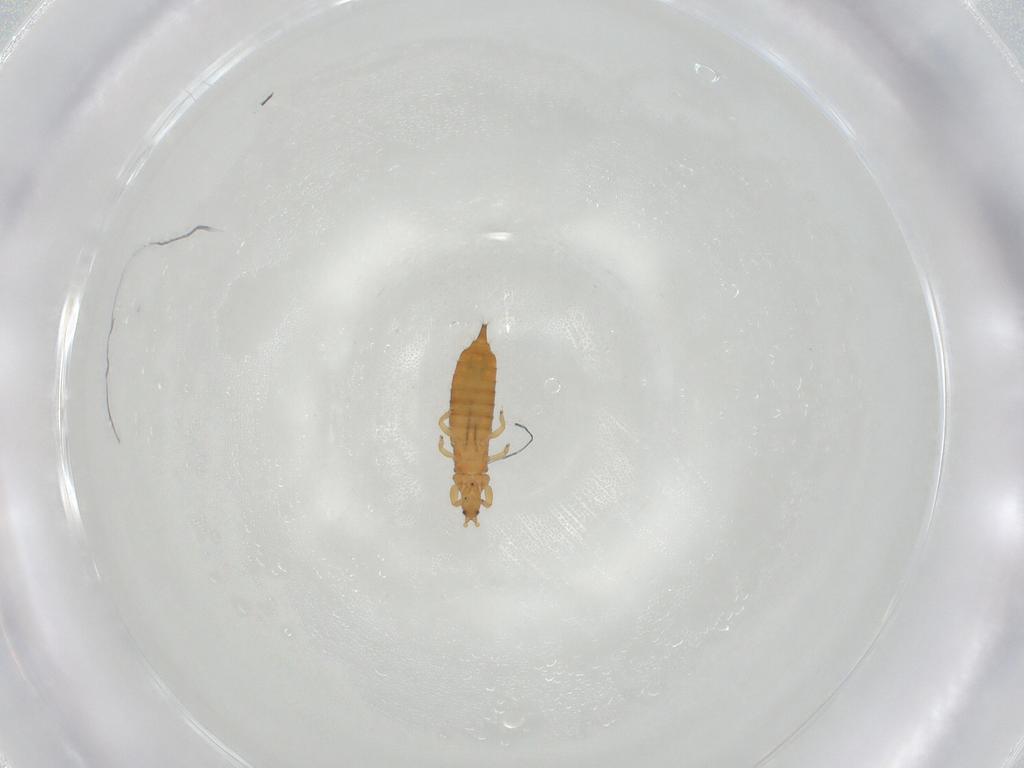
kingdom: Animalia
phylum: Arthropoda
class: Insecta
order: Thysanoptera
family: Phlaeothripidae
